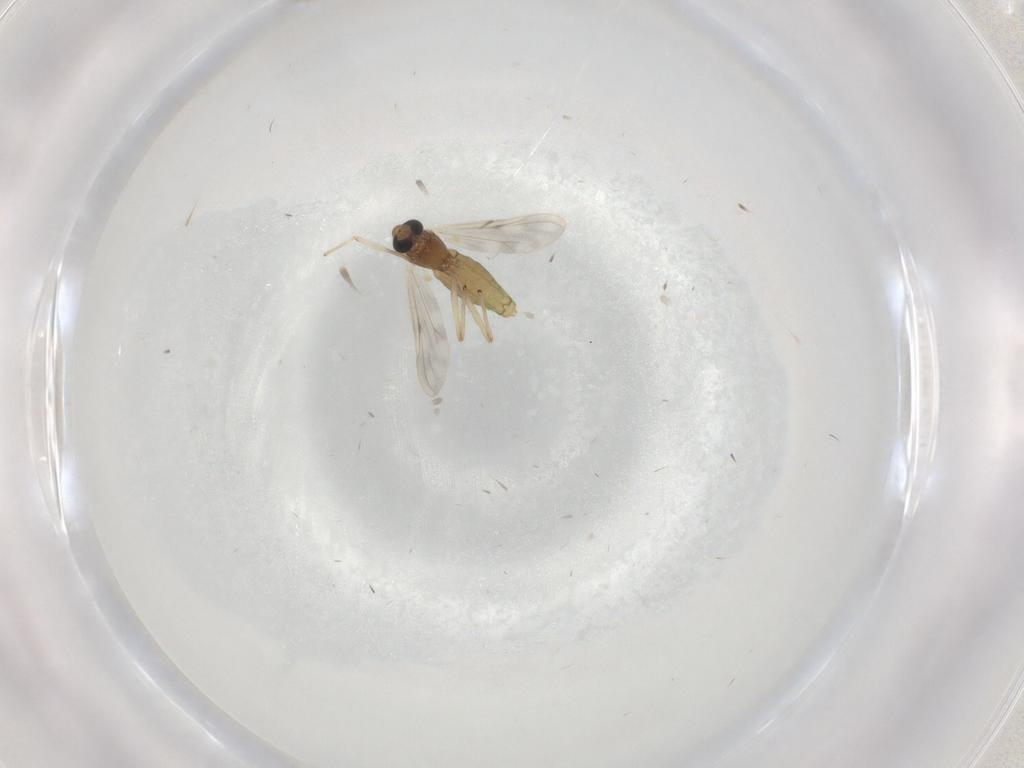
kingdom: Animalia
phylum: Arthropoda
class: Insecta
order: Diptera
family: Chironomidae
